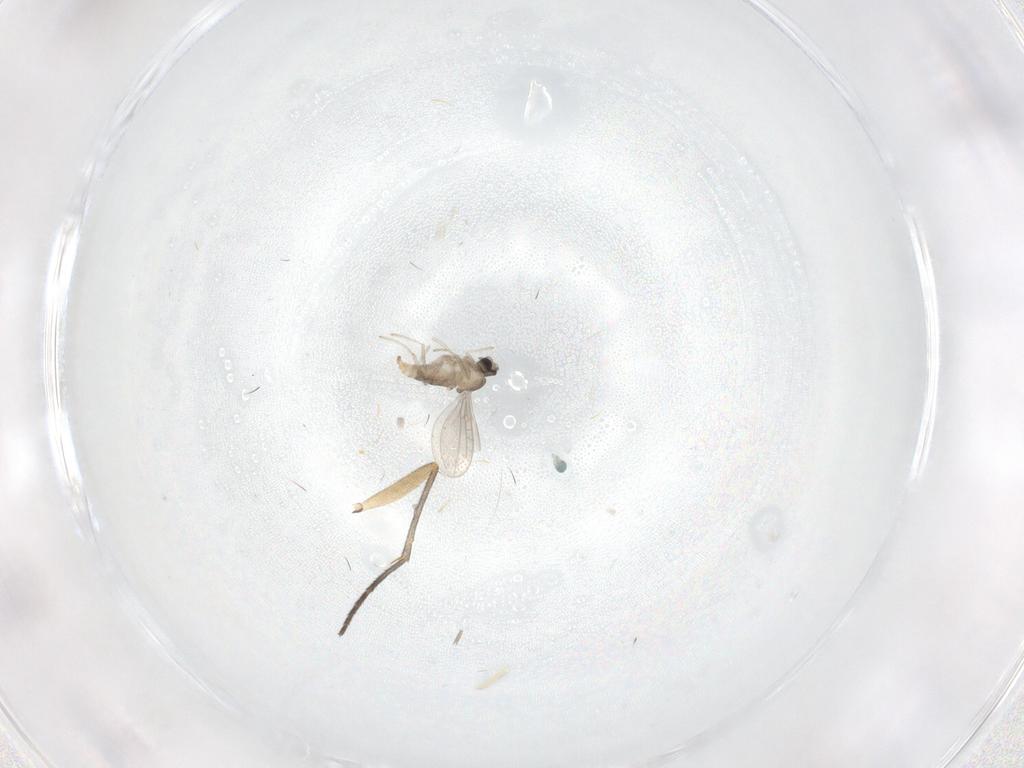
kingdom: Animalia
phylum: Arthropoda
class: Insecta
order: Diptera
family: Cecidomyiidae
